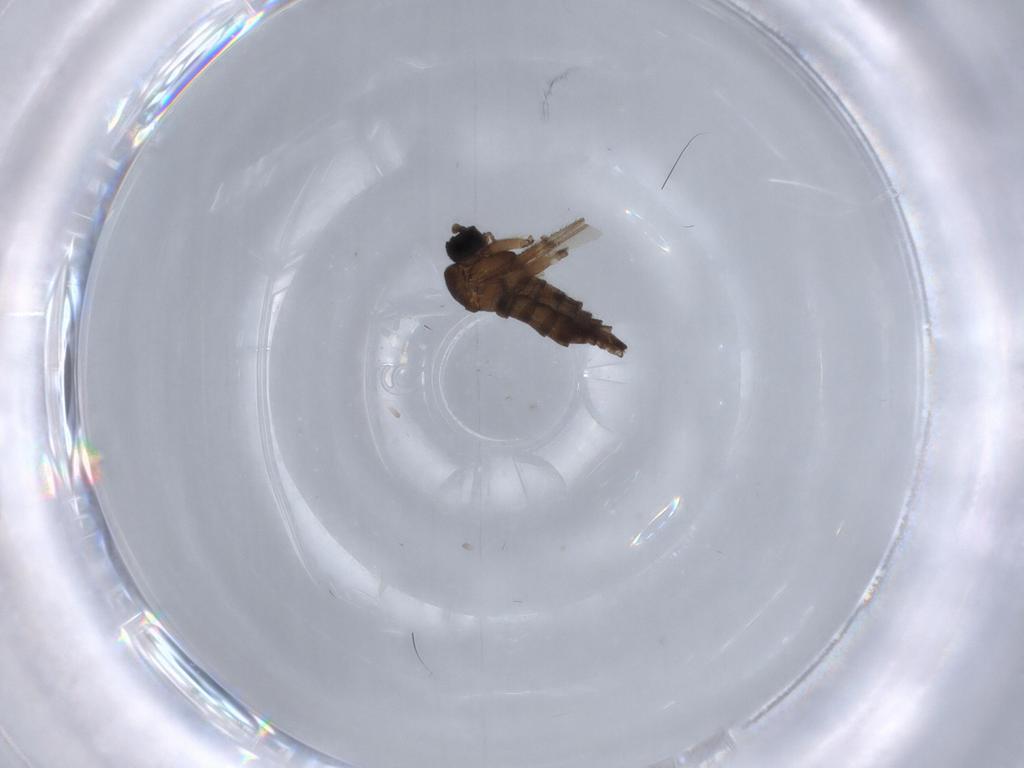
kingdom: Animalia
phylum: Arthropoda
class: Insecta
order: Diptera
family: Sciaridae
